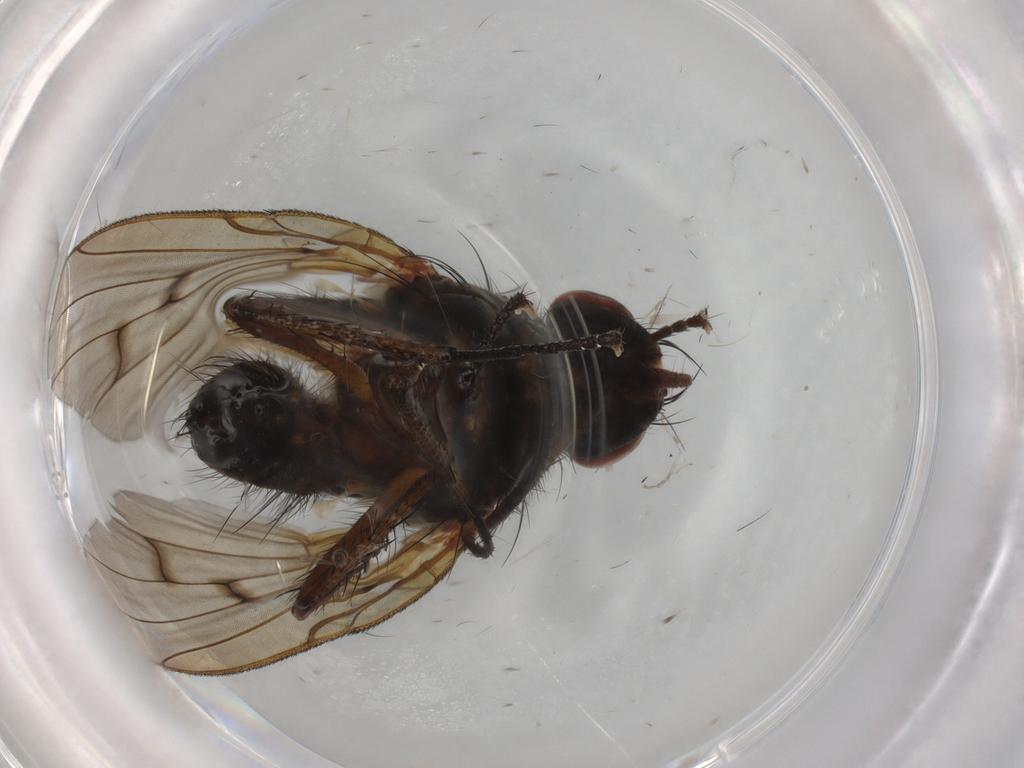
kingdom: Animalia
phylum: Arthropoda
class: Insecta
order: Diptera
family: Anthomyiidae
